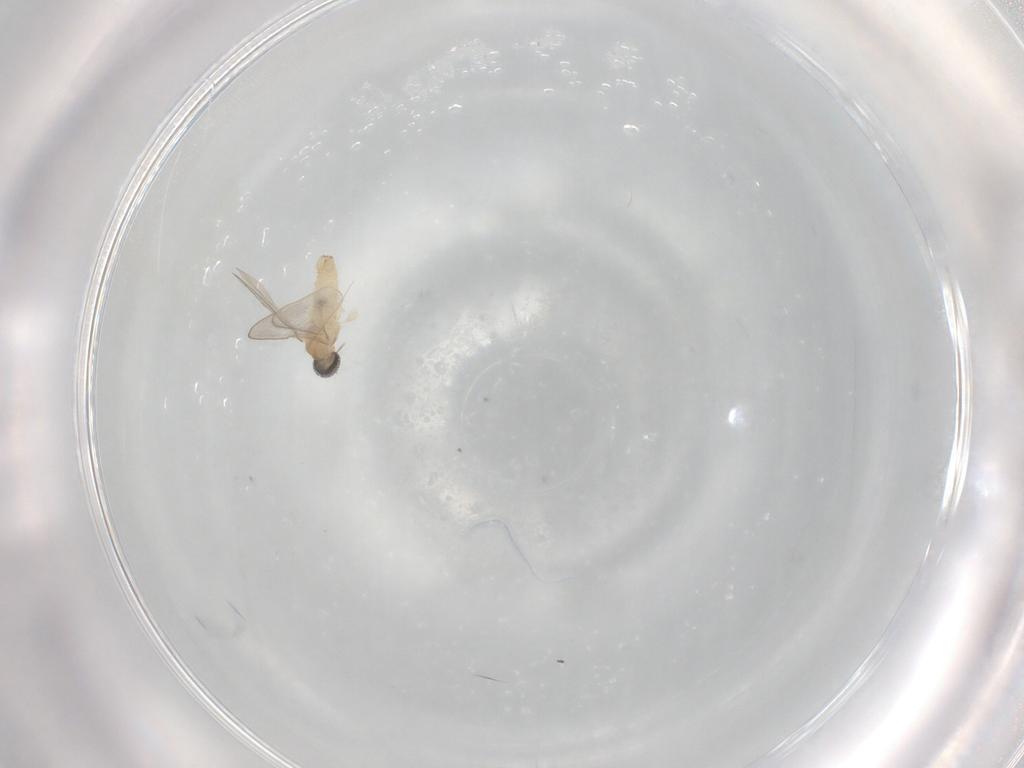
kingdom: Animalia
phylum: Arthropoda
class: Insecta
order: Diptera
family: Cecidomyiidae
